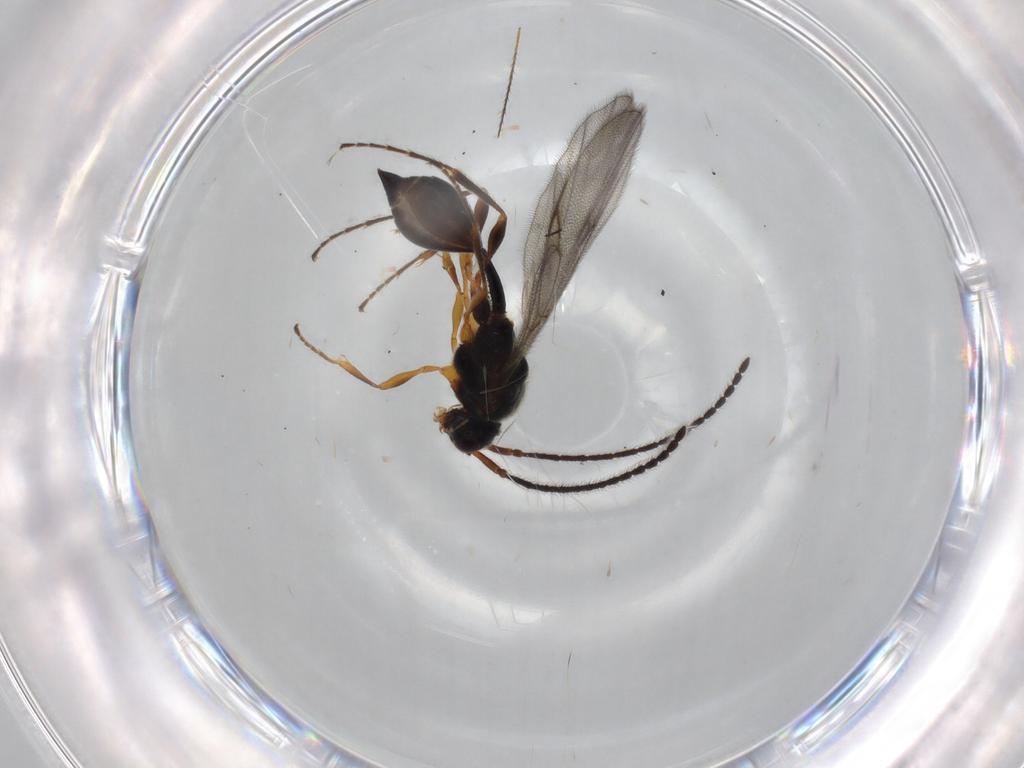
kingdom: Animalia
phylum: Arthropoda
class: Insecta
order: Hymenoptera
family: Diapriidae
